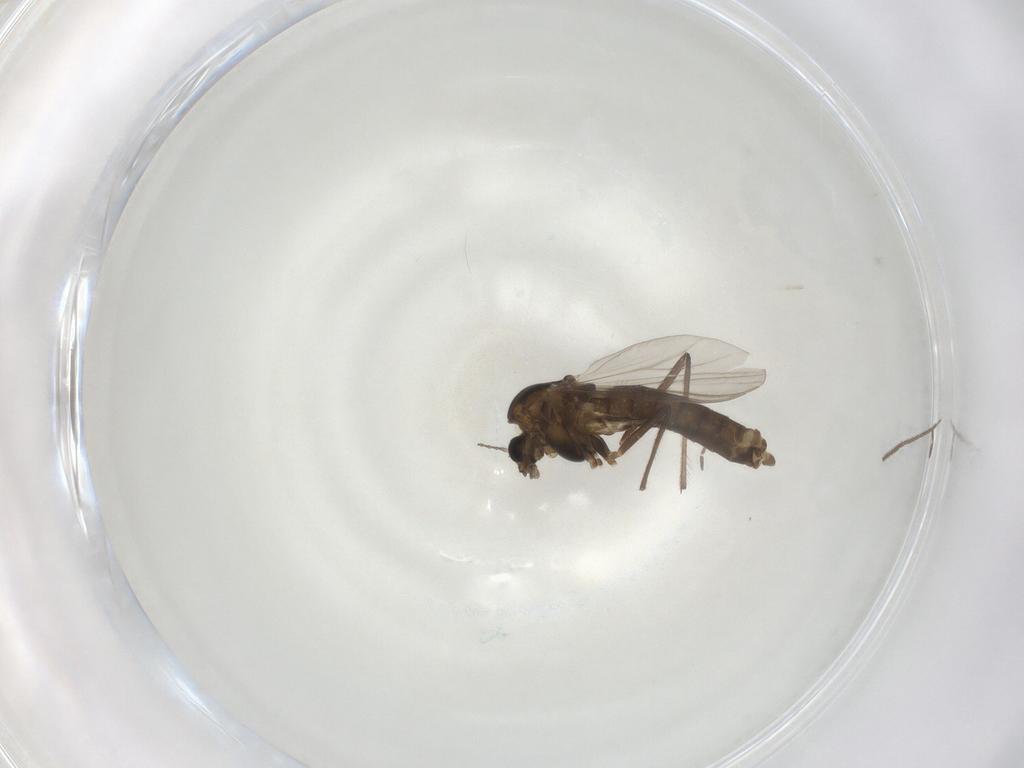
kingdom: Animalia
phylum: Arthropoda
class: Insecta
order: Diptera
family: Chironomidae
